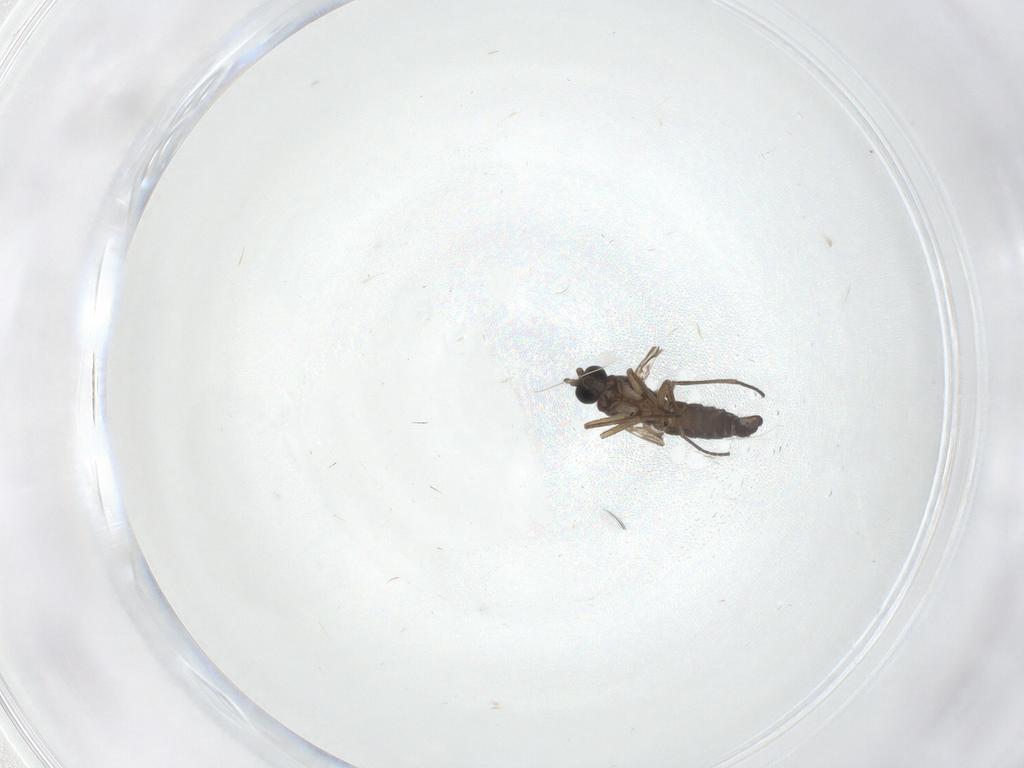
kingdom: Animalia
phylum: Arthropoda
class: Insecta
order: Diptera
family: Sciaridae
